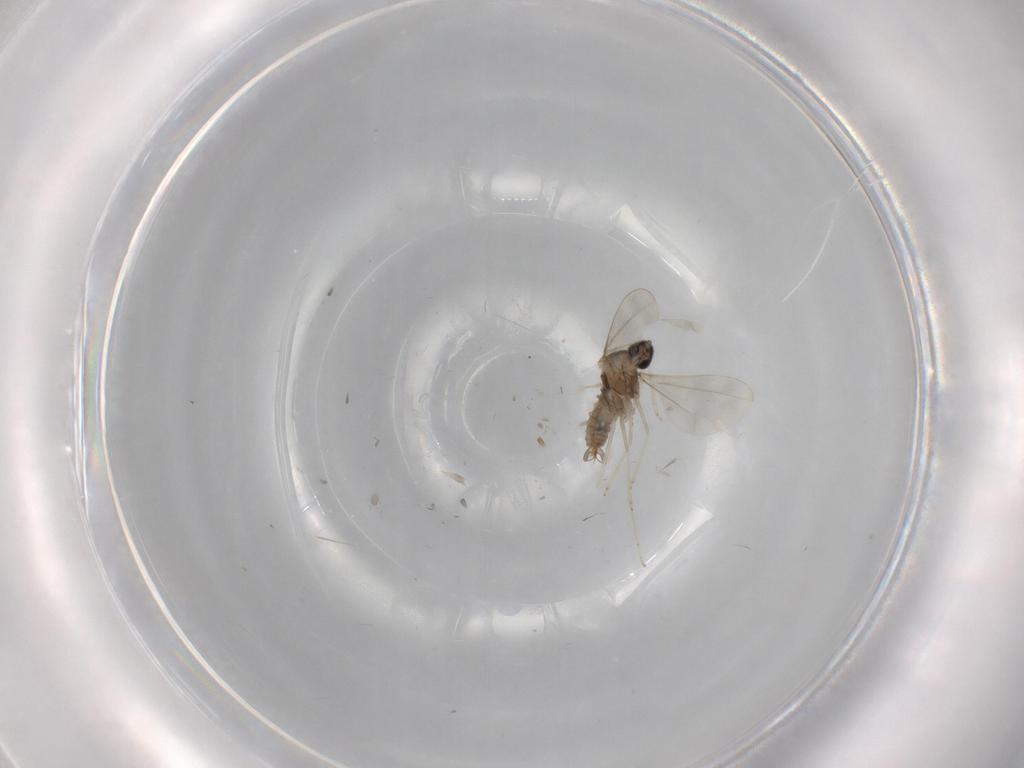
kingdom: Animalia
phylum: Arthropoda
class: Insecta
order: Diptera
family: Cecidomyiidae
